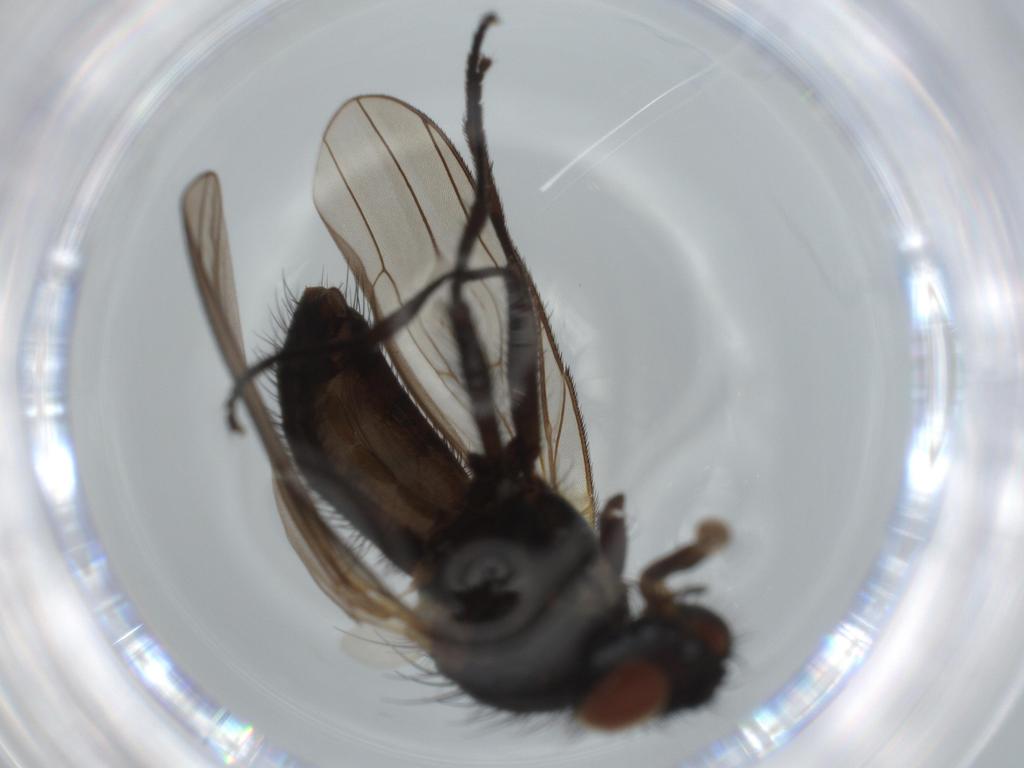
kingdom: Animalia
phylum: Arthropoda
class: Insecta
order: Diptera
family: Fannia
